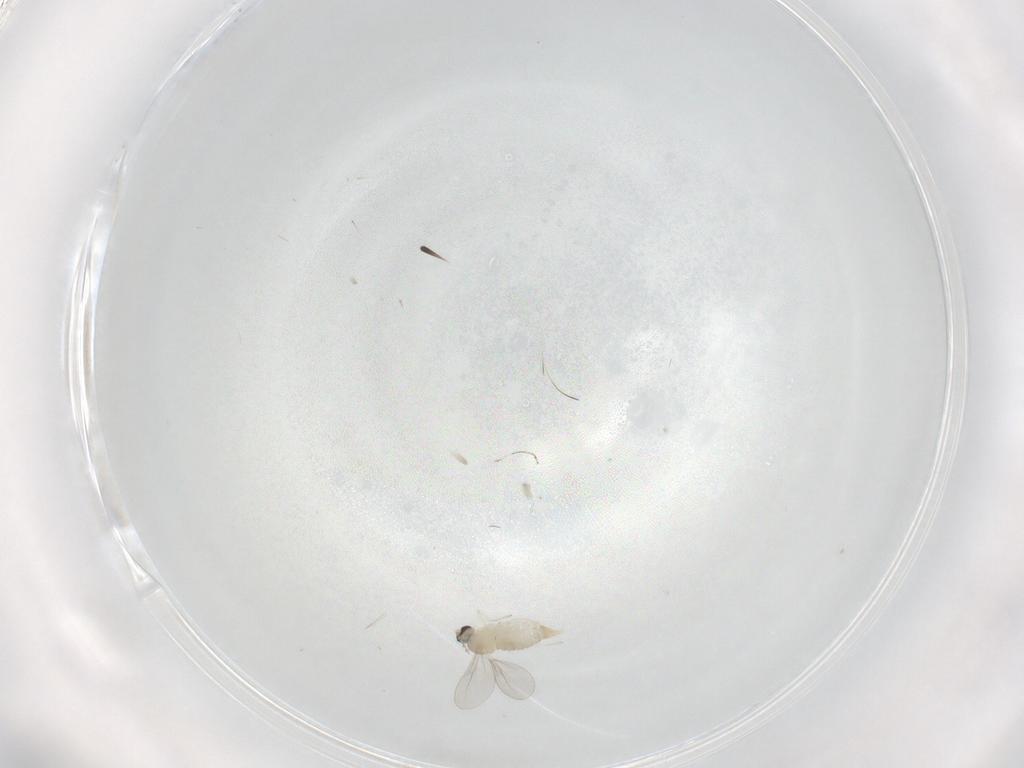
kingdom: Animalia
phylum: Arthropoda
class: Insecta
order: Diptera
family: Cecidomyiidae
